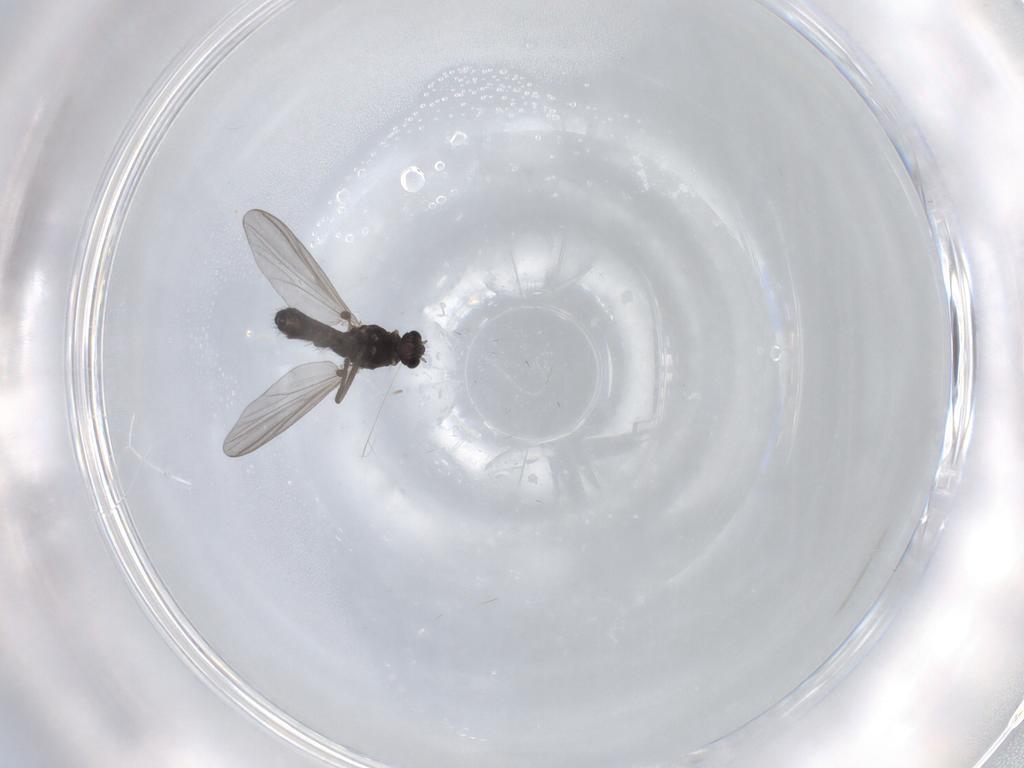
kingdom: Animalia
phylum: Arthropoda
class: Insecta
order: Diptera
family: Chironomidae
